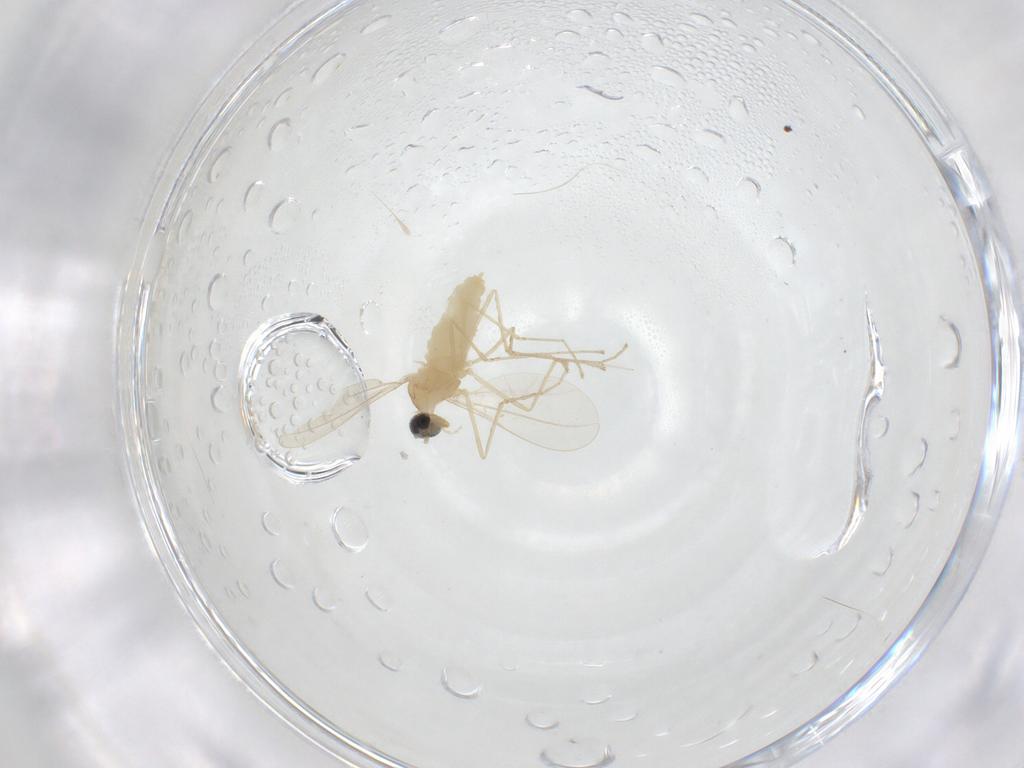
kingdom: Animalia
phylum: Arthropoda
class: Insecta
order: Diptera
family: Cecidomyiidae
